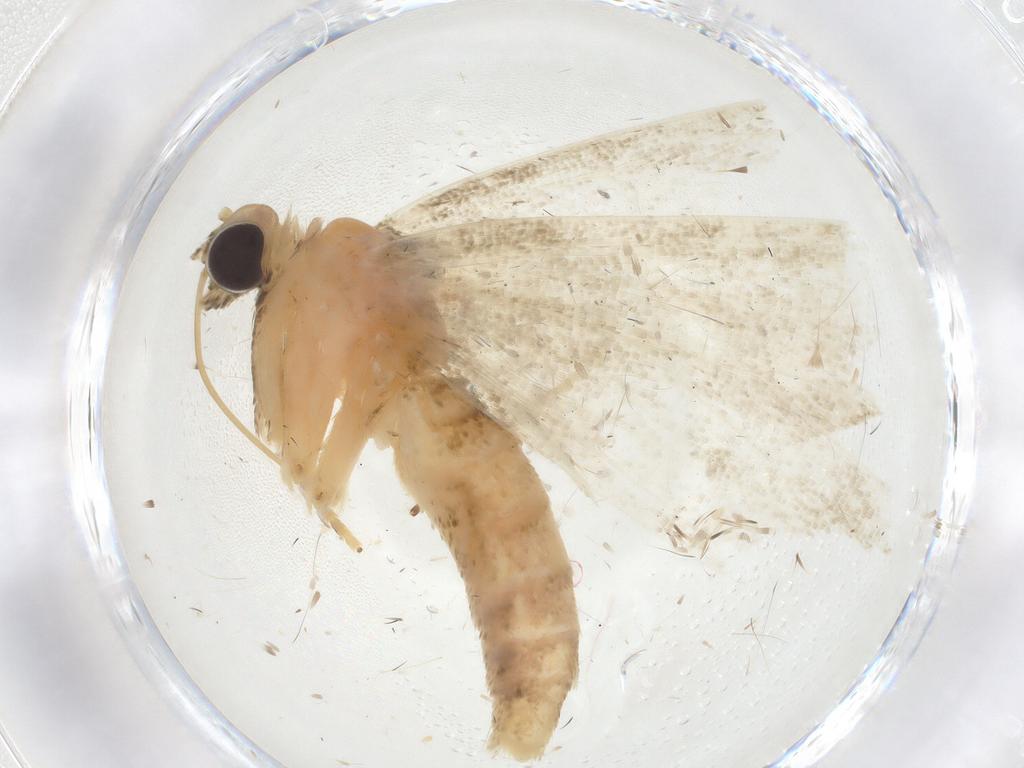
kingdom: Animalia
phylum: Arthropoda
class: Insecta
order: Lepidoptera
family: Geometridae
